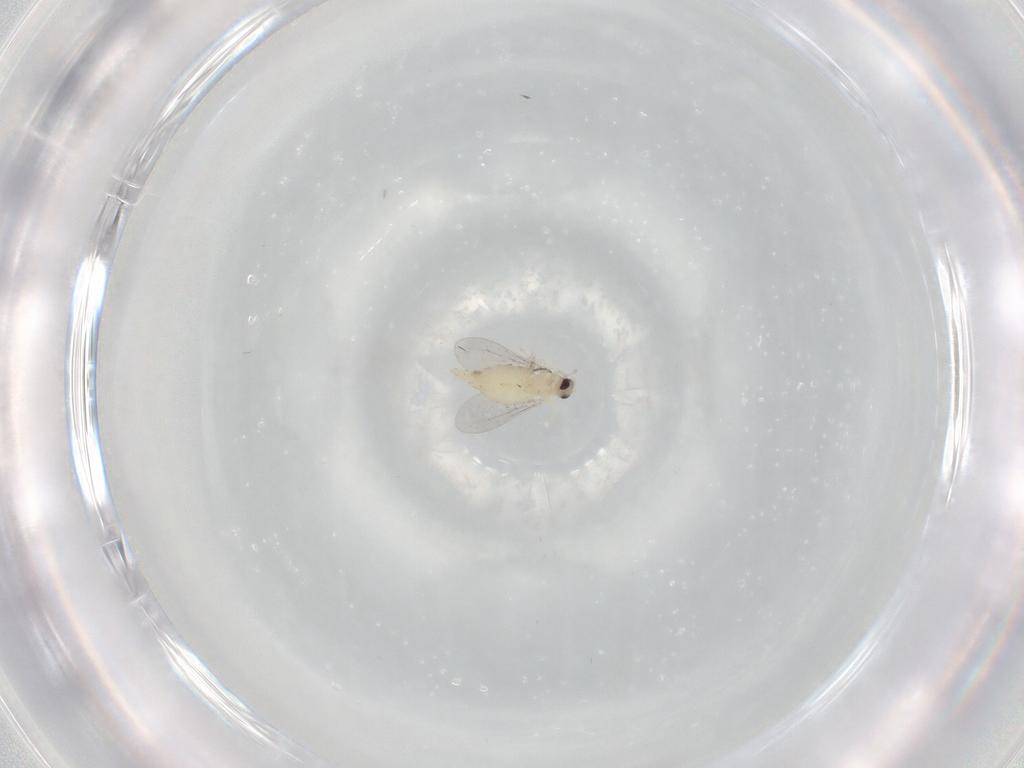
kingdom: Animalia
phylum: Arthropoda
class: Insecta
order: Diptera
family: Cecidomyiidae
